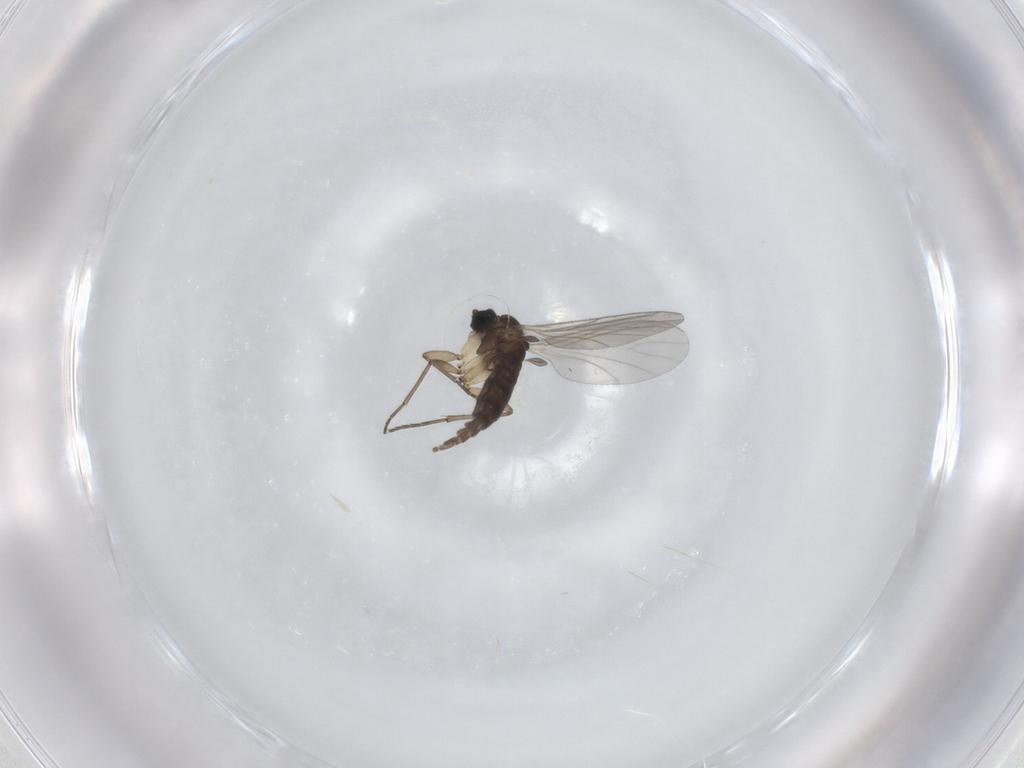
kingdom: Animalia
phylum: Arthropoda
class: Insecta
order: Diptera
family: Sciaridae
